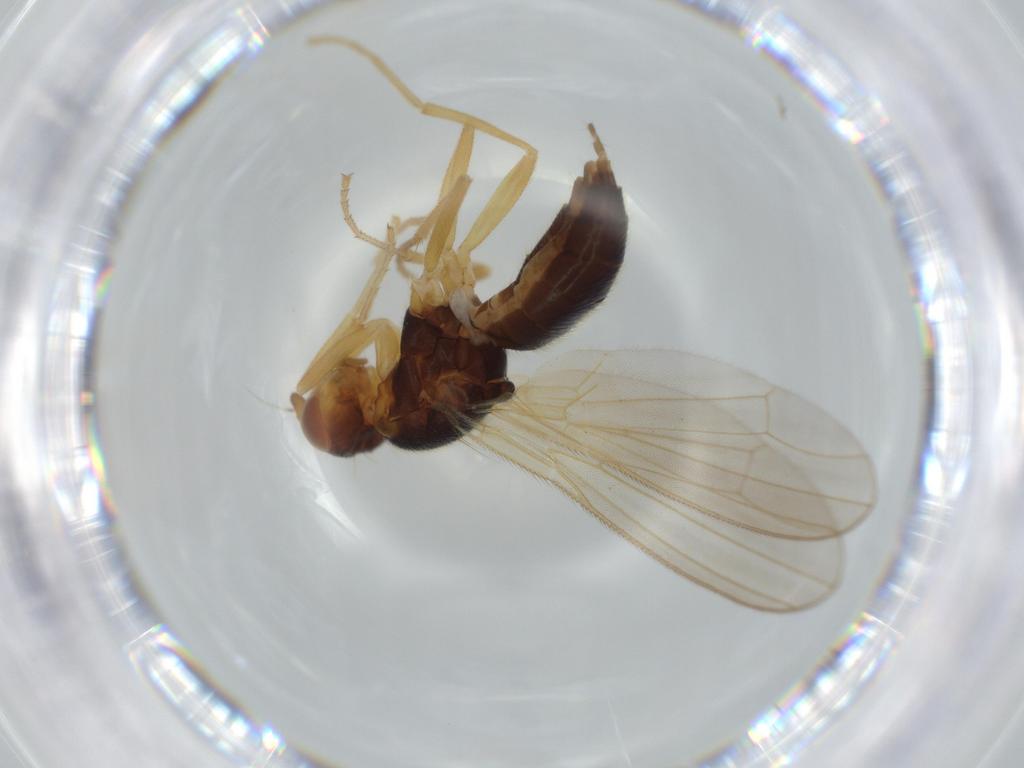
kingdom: Animalia
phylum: Arthropoda
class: Insecta
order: Diptera
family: Psilidae
